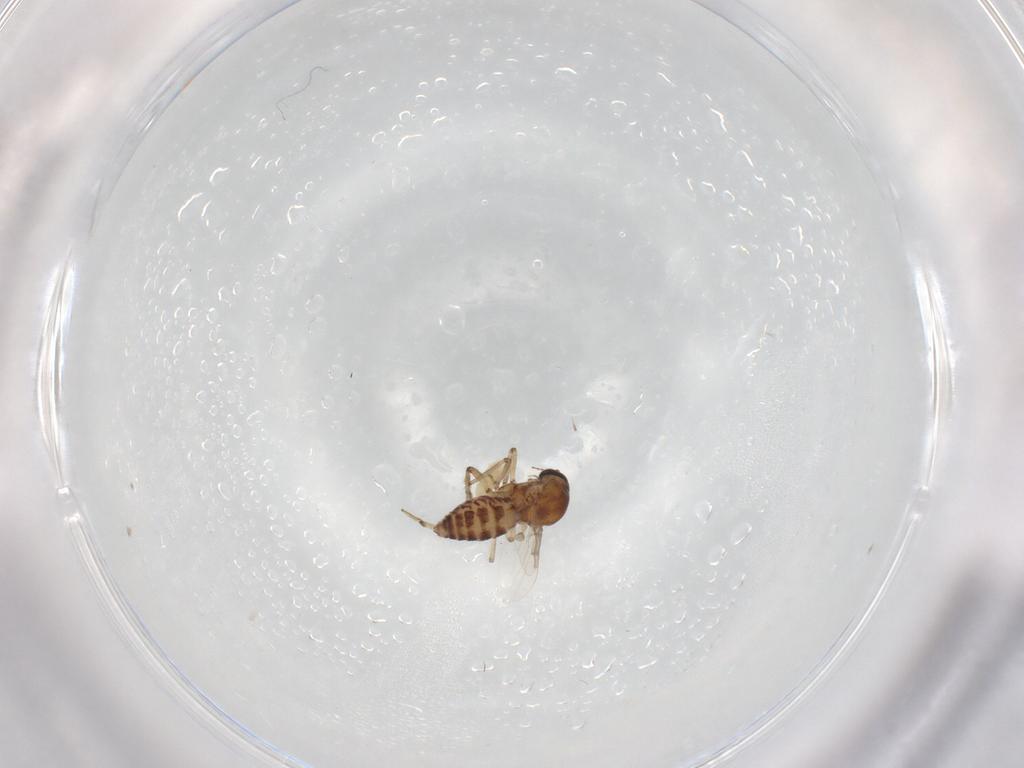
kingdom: Animalia
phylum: Arthropoda
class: Insecta
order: Diptera
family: Ceratopogonidae
